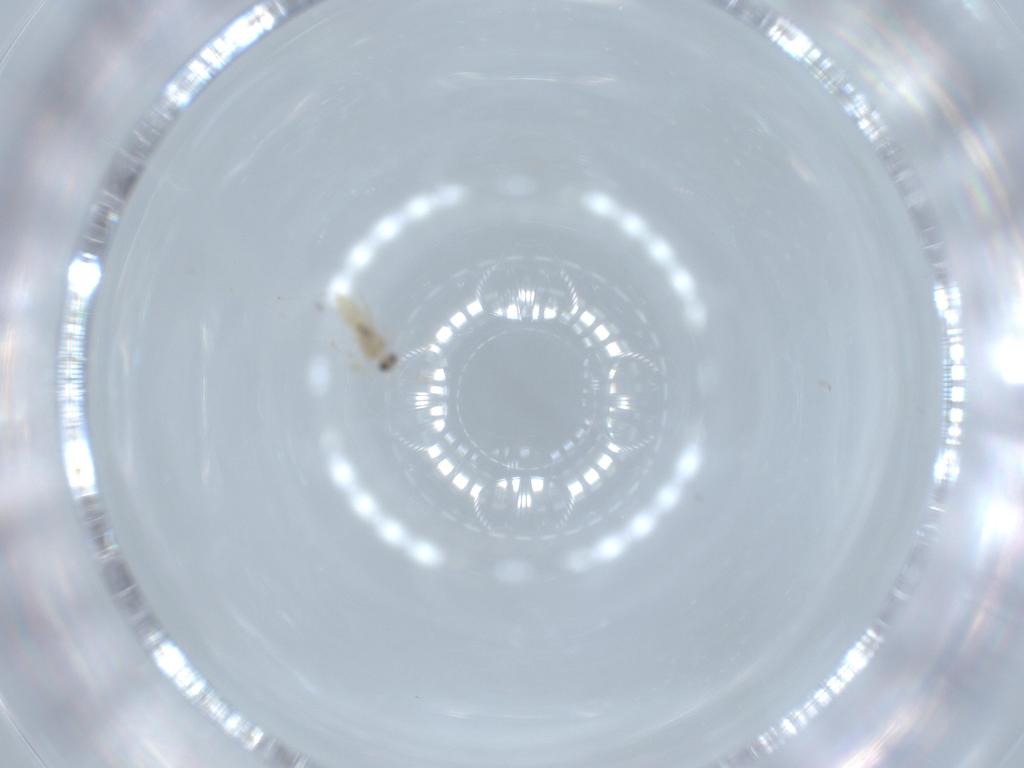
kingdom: Animalia
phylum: Arthropoda
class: Insecta
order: Diptera
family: Cecidomyiidae
